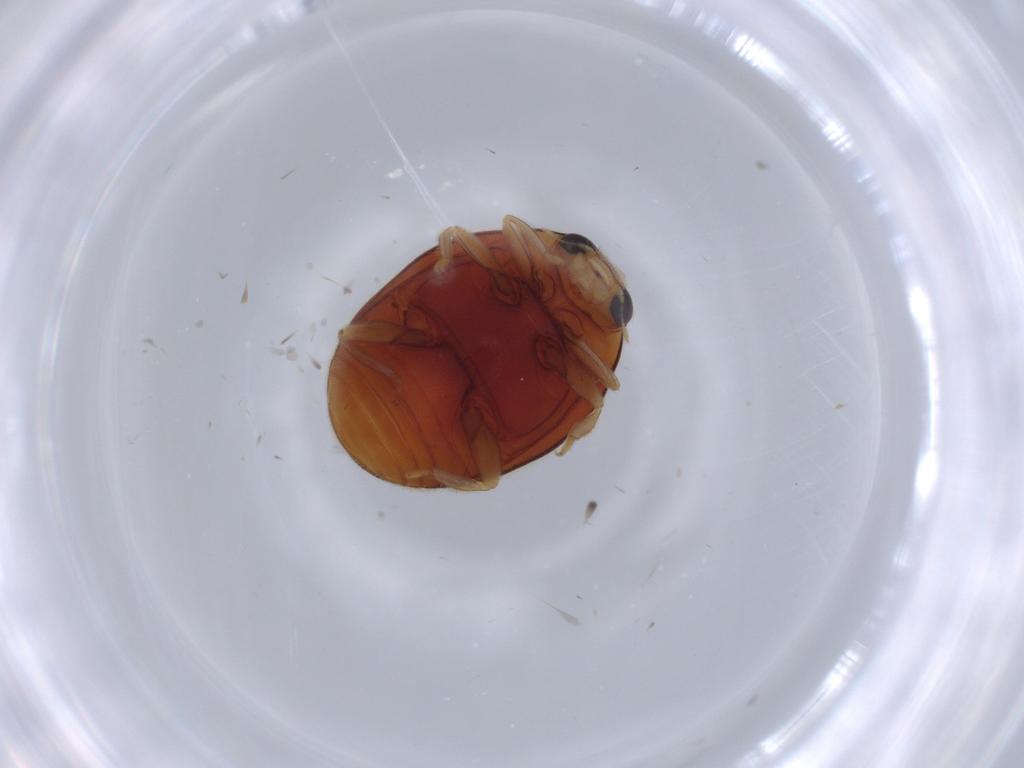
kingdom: Animalia
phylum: Arthropoda
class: Insecta
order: Coleoptera
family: Coccinellidae
